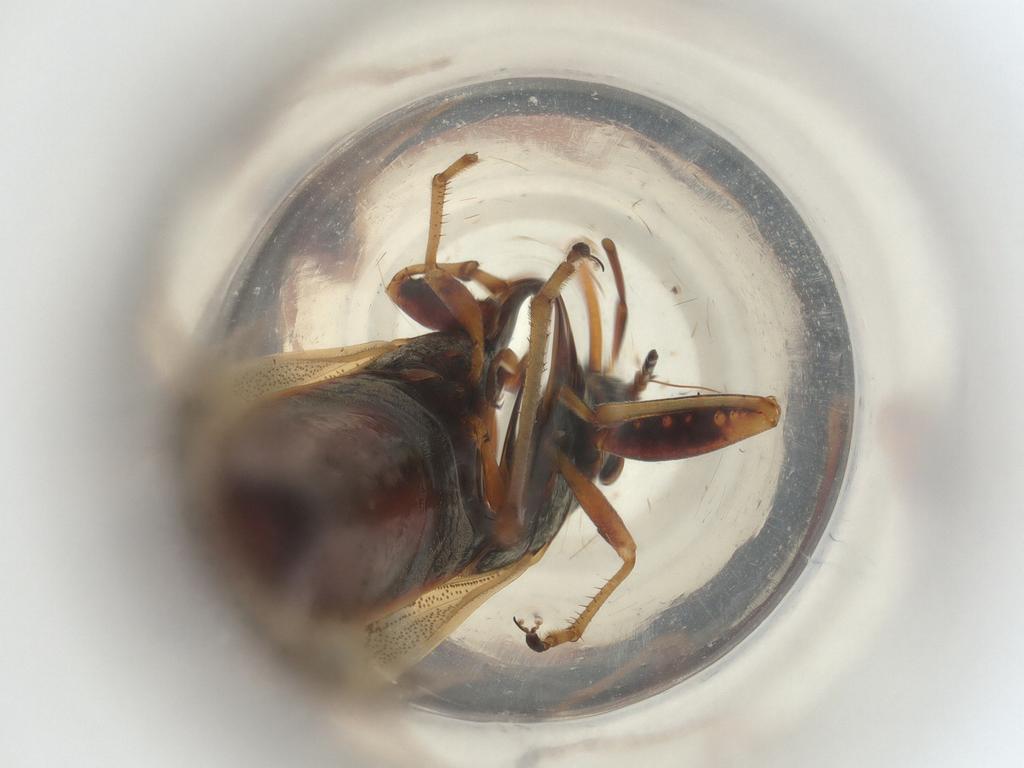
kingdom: Animalia
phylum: Arthropoda
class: Insecta
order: Hemiptera
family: Rhyparochromidae
